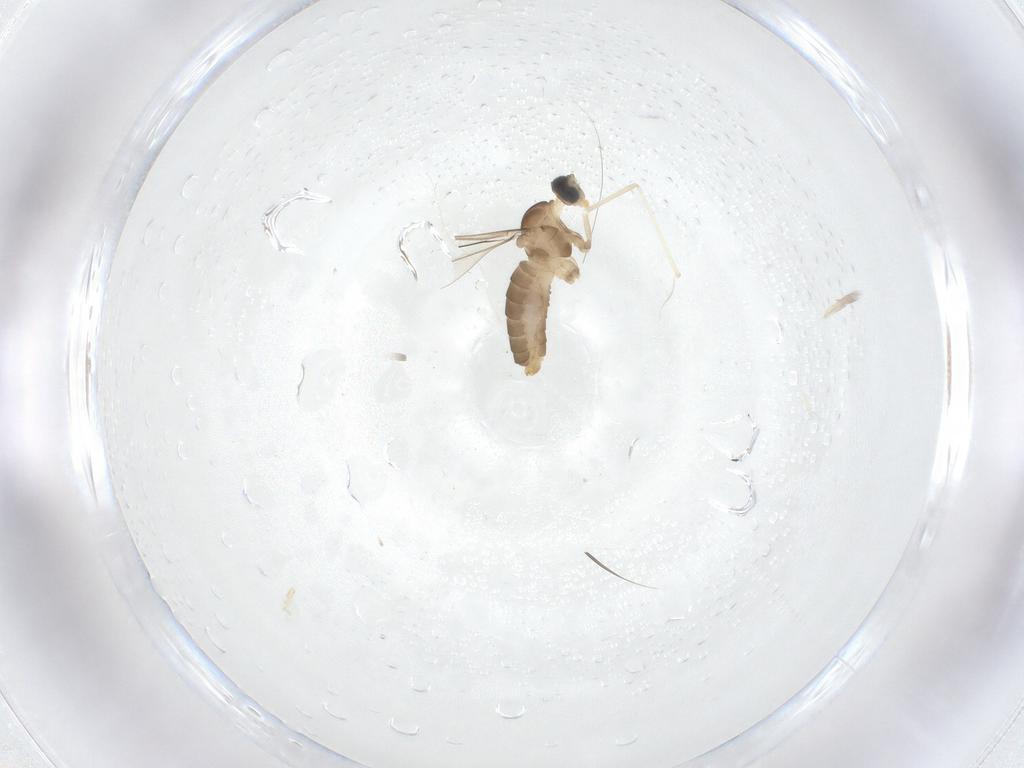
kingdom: Animalia
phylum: Arthropoda
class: Insecta
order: Diptera
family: Cecidomyiidae
